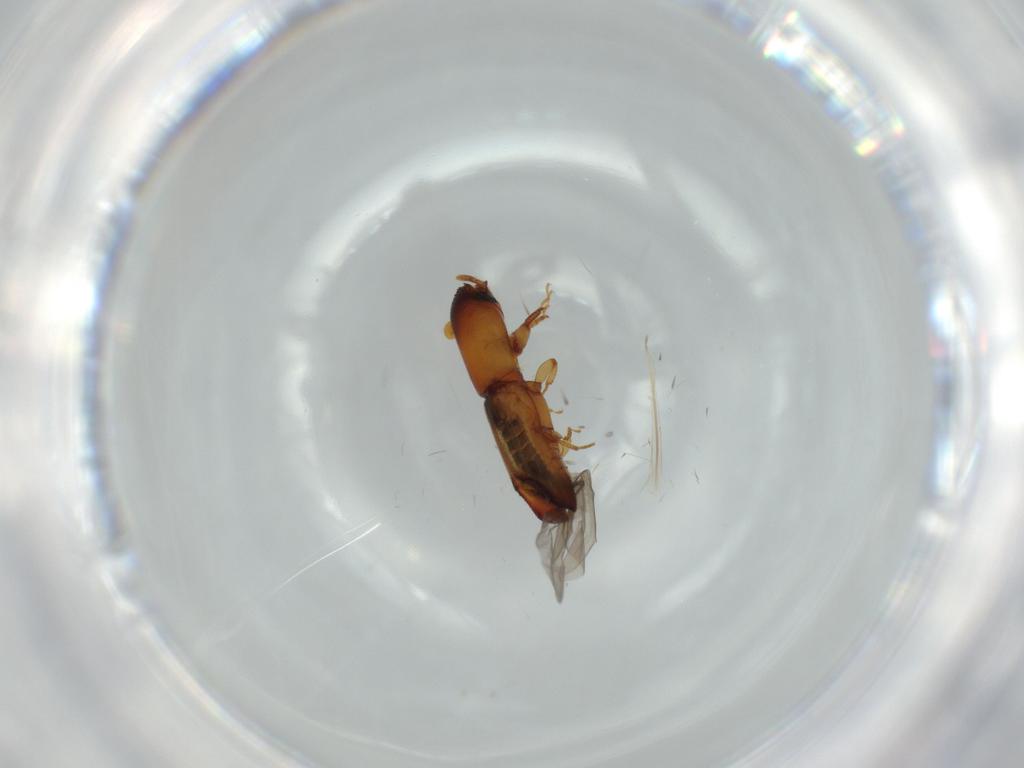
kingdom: Animalia
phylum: Arthropoda
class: Insecta
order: Coleoptera
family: Curculionidae
